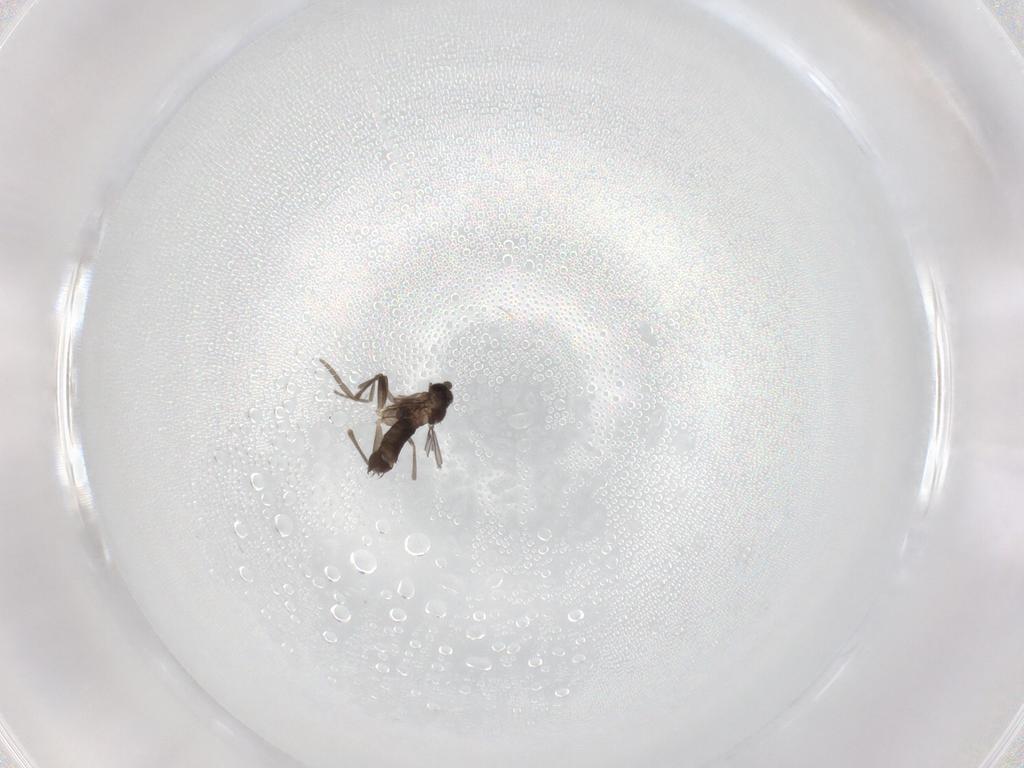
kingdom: Animalia
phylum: Arthropoda
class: Insecta
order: Diptera
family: Phoridae
